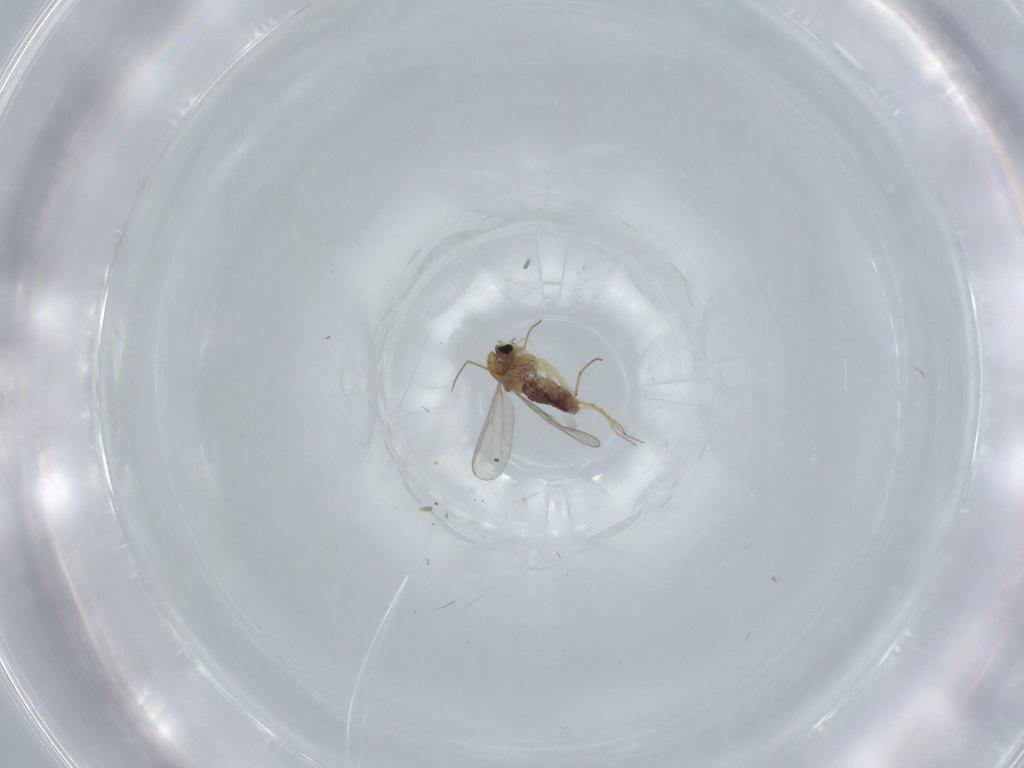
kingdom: Animalia
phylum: Arthropoda
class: Insecta
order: Diptera
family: Chironomidae
